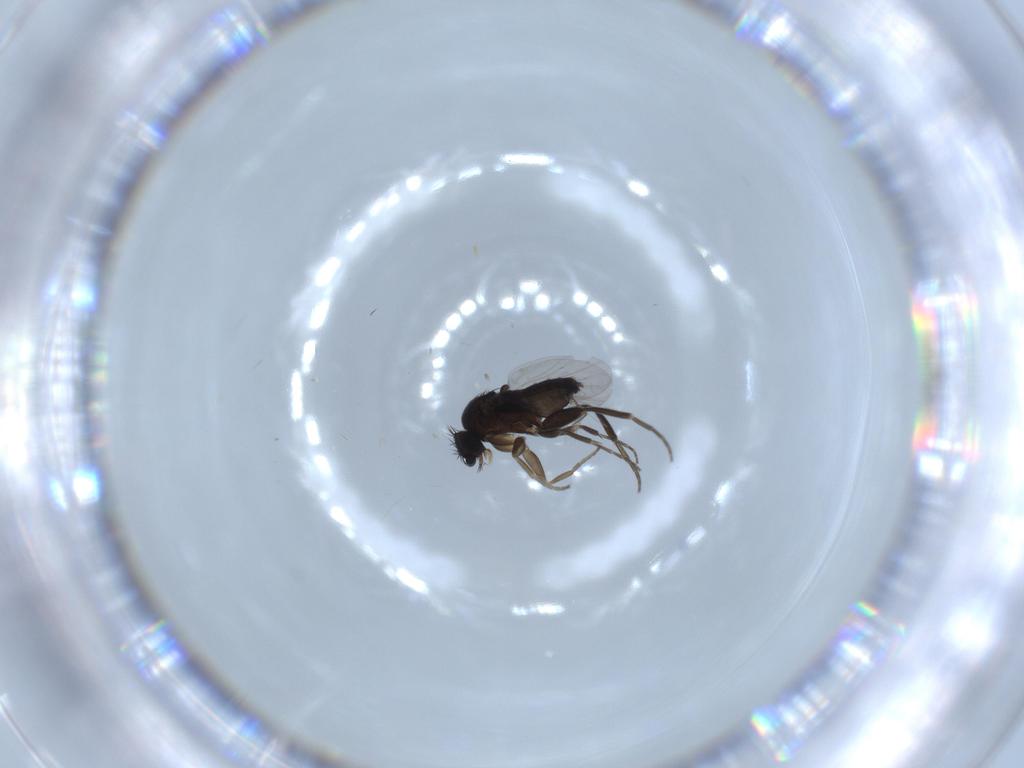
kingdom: Animalia
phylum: Arthropoda
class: Insecta
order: Diptera
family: Phoridae
